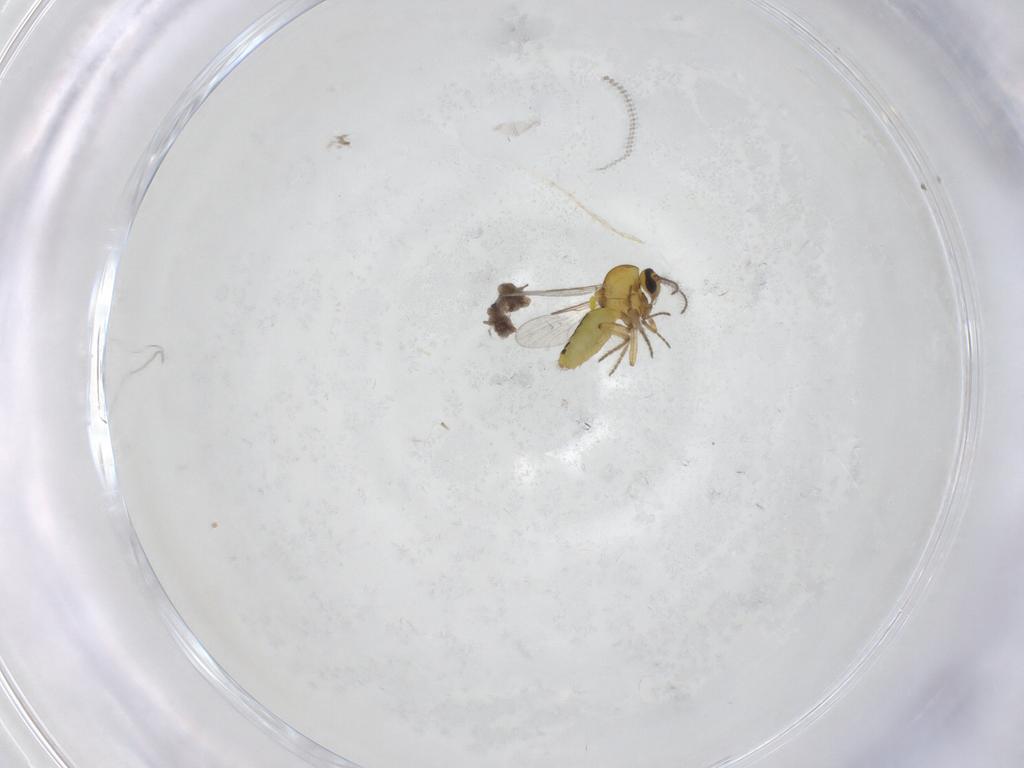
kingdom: Animalia
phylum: Arthropoda
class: Insecta
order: Diptera
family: Cecidomyiidae
